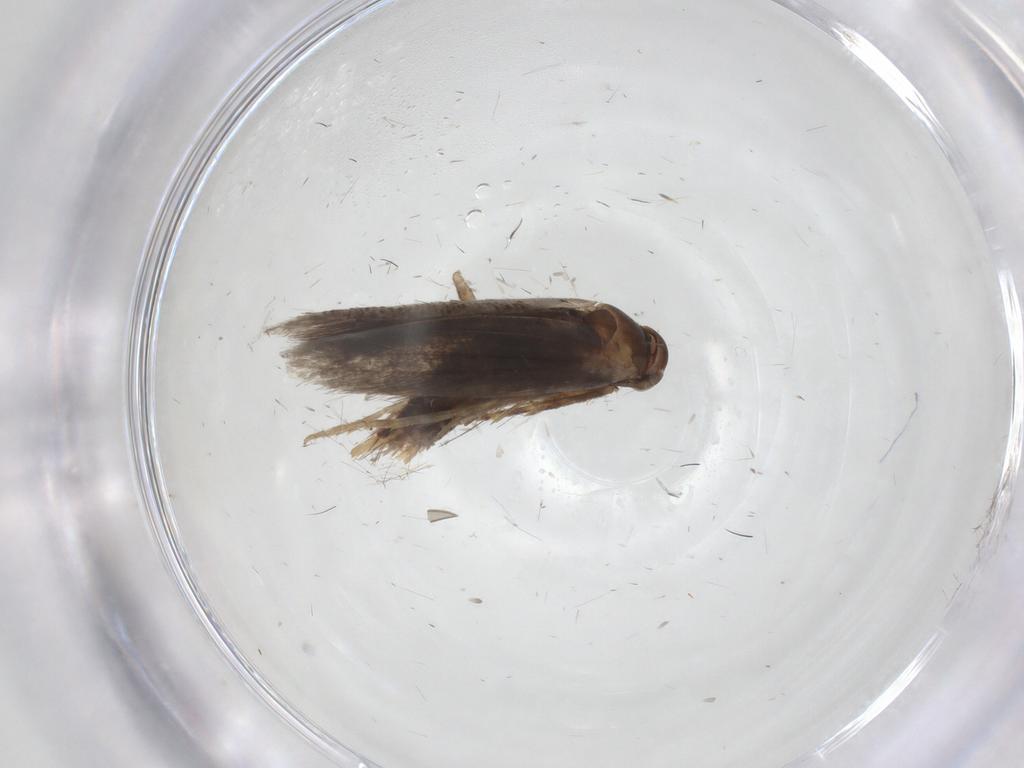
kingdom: Animalia
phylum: Arthropoda
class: Insecta
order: Lepidoptera
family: Elachistidae
